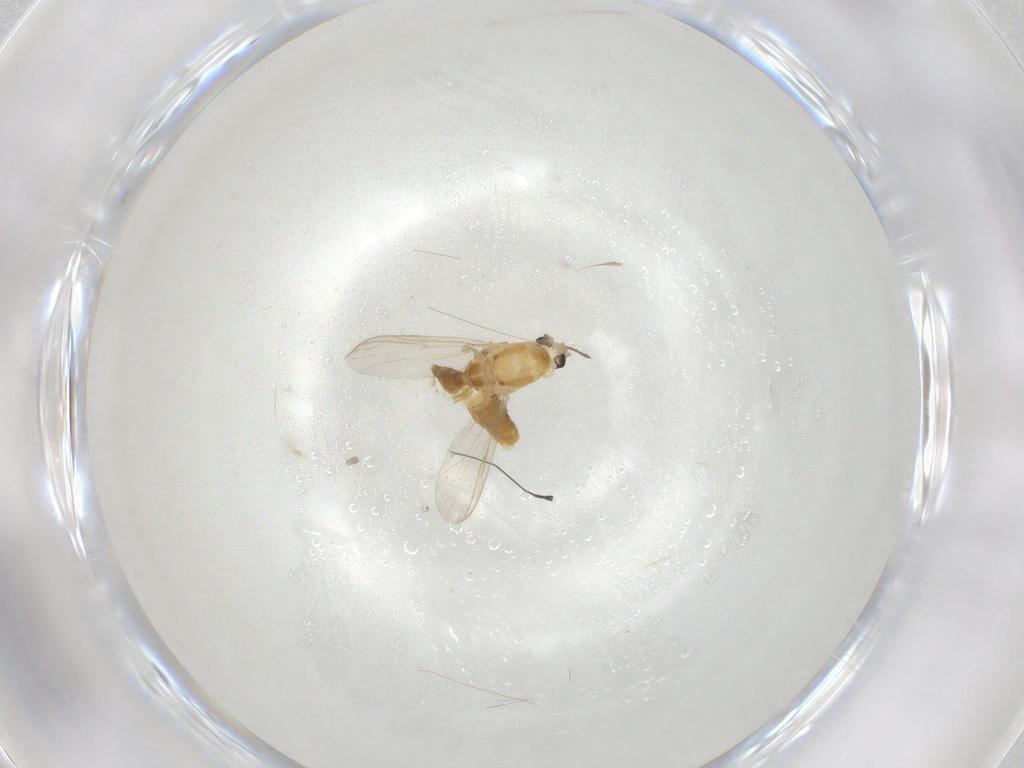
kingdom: Animalia
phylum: Arthropoda
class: Insecta
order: Diptera
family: Chironomidae
